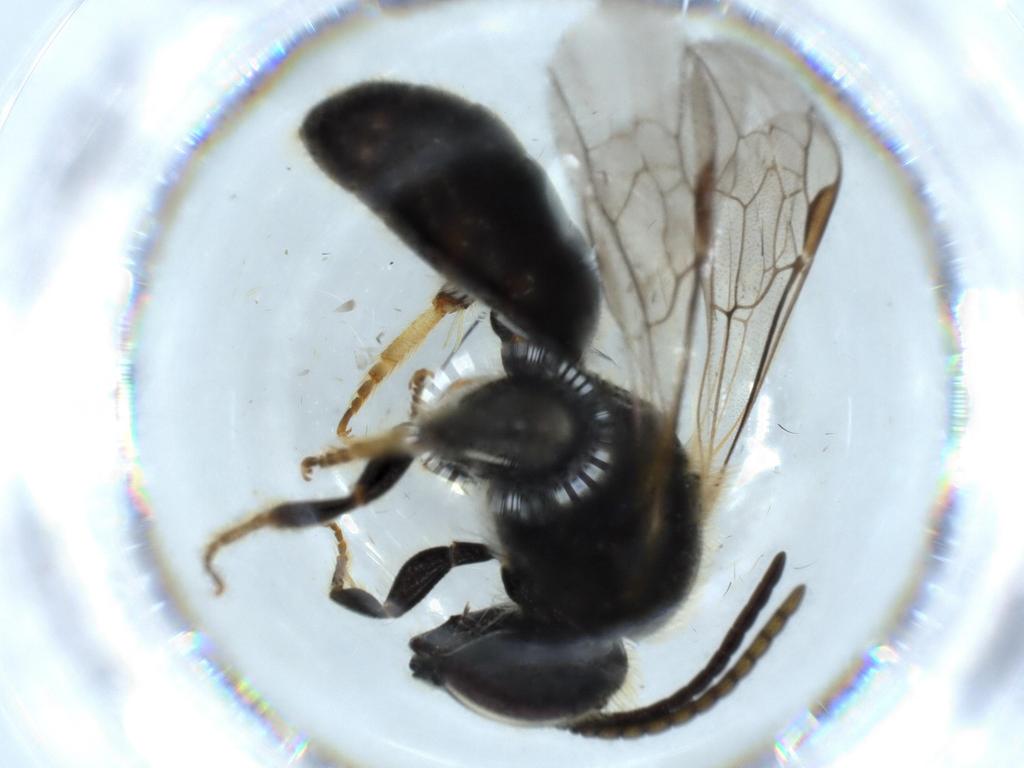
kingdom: Animalia
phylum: Arthropoda
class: Insecta
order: Hymenoptera
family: Halictidae
